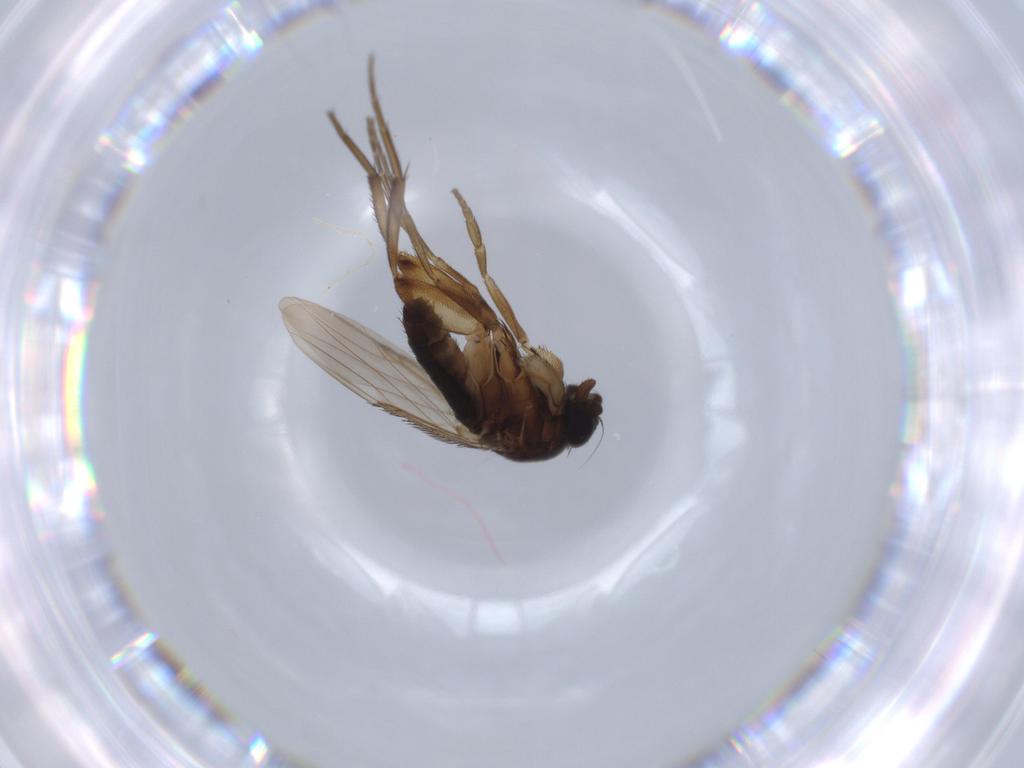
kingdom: Animalia
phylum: Arthropoda
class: Insecta
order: Diptera
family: Phoridae
